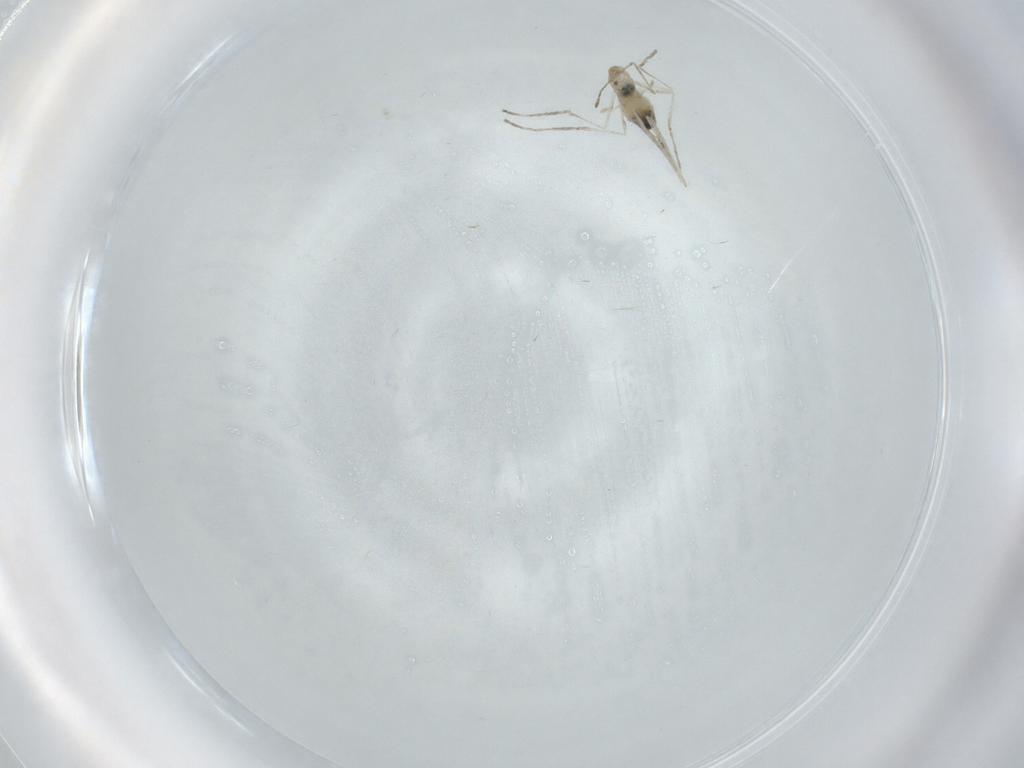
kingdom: Animalia
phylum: Arthropoda
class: Insecta
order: Diptera
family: Cecidomyiidae
